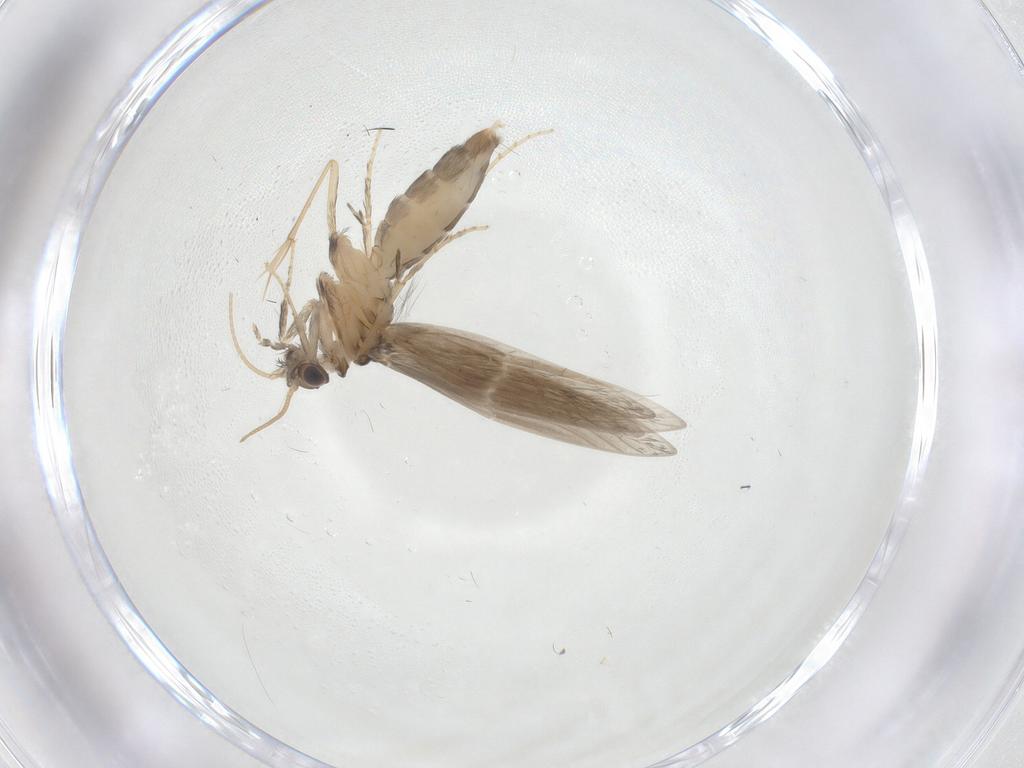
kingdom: Animalia
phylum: Arthropoda
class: Insecta
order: Trichoptera
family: Hydroptilidae
